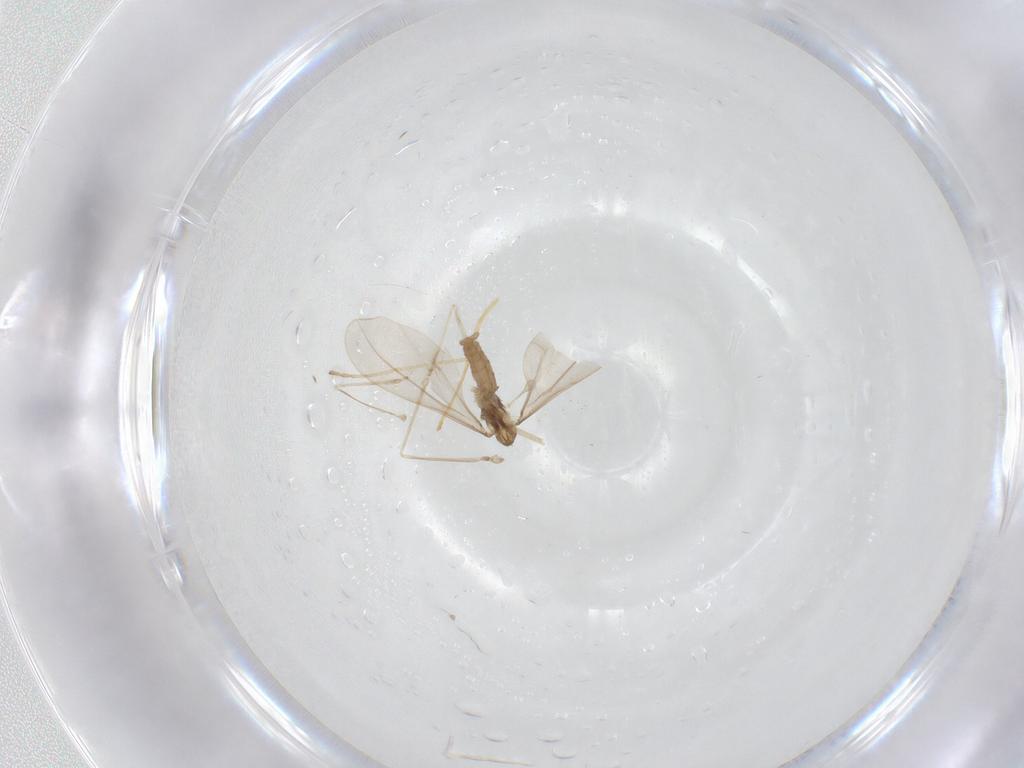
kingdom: Animalia
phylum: Arthropoda
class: Insecta
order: Diptera
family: Cecidomyiidae
